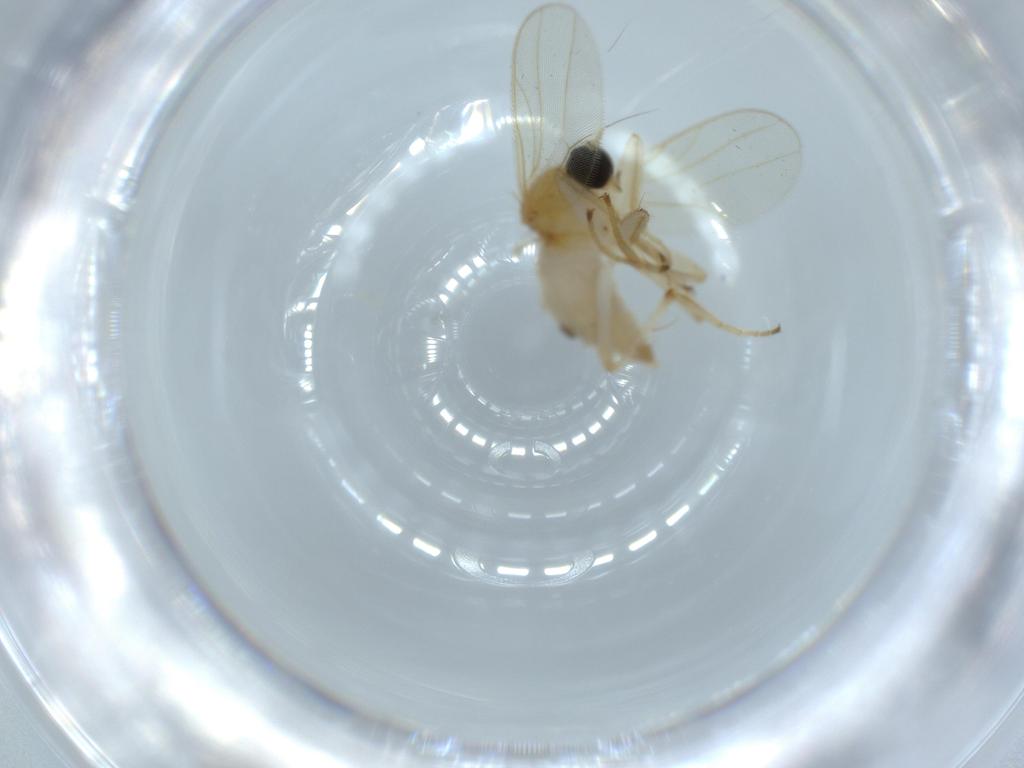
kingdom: Animalia
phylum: Arthropoda
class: Insecta
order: Diptera
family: Hybotidae
